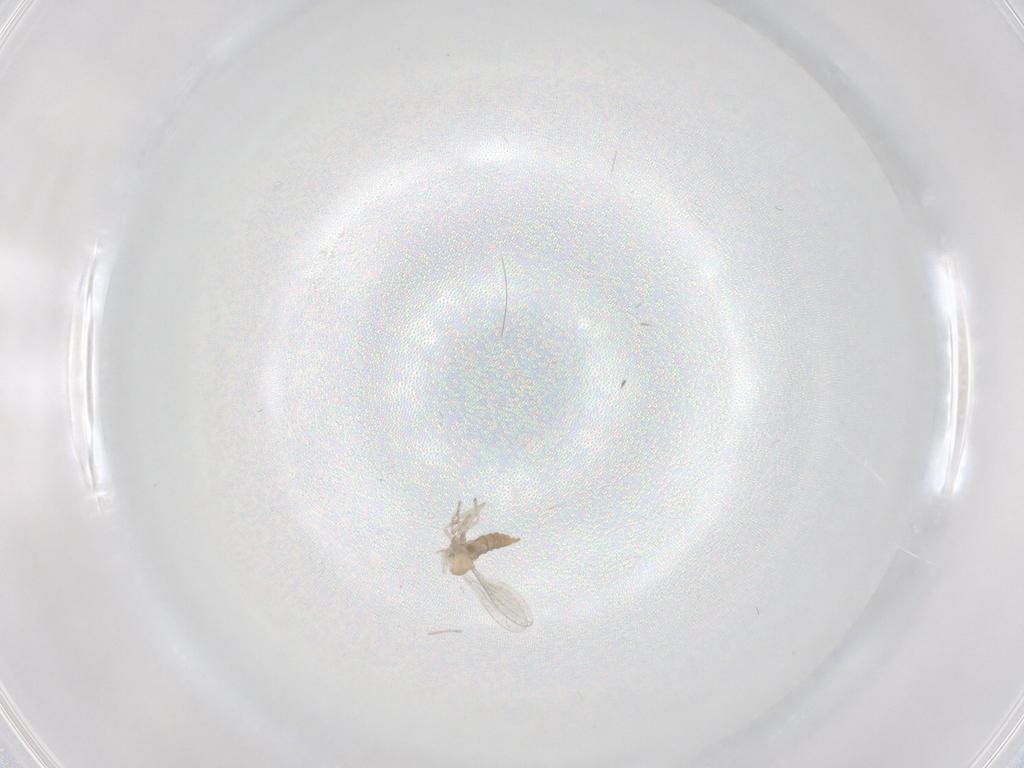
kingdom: Animalia
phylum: Arthropoda
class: Insecta
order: Diptera
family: Cecidomyiidae
